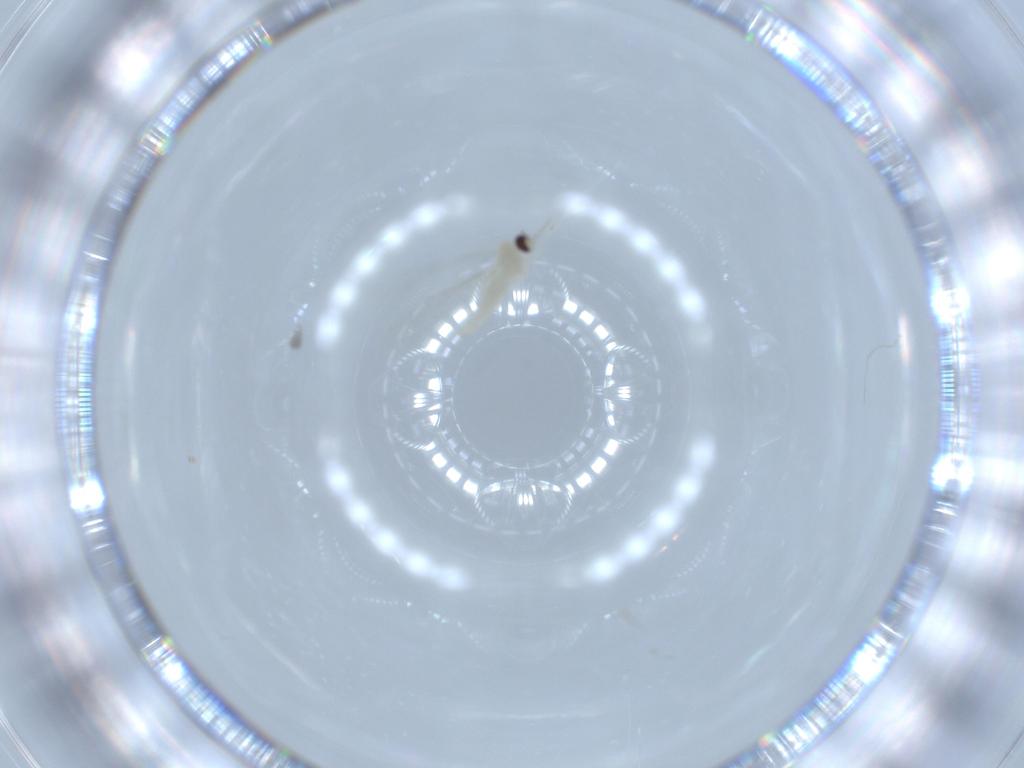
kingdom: Animalia
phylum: Arthropoda
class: Insecta
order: Diptera
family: Cecidomyiidae
